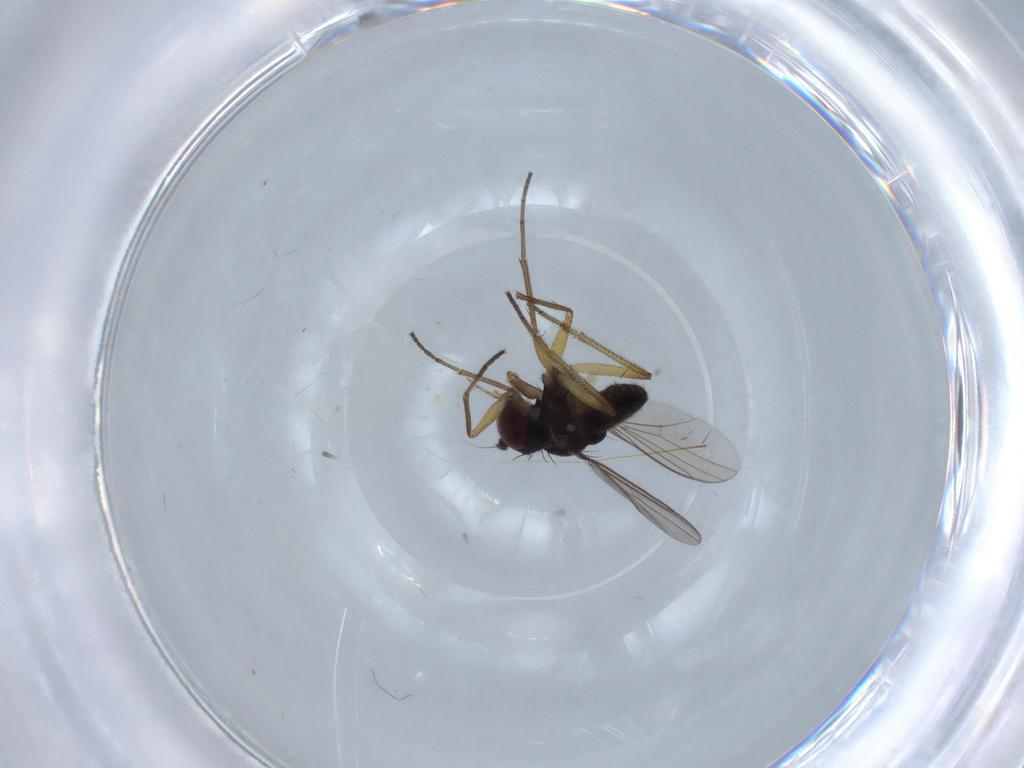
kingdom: Animalia
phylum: Arthropoda
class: Insecta
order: Diptera
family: Dolichopodidae
